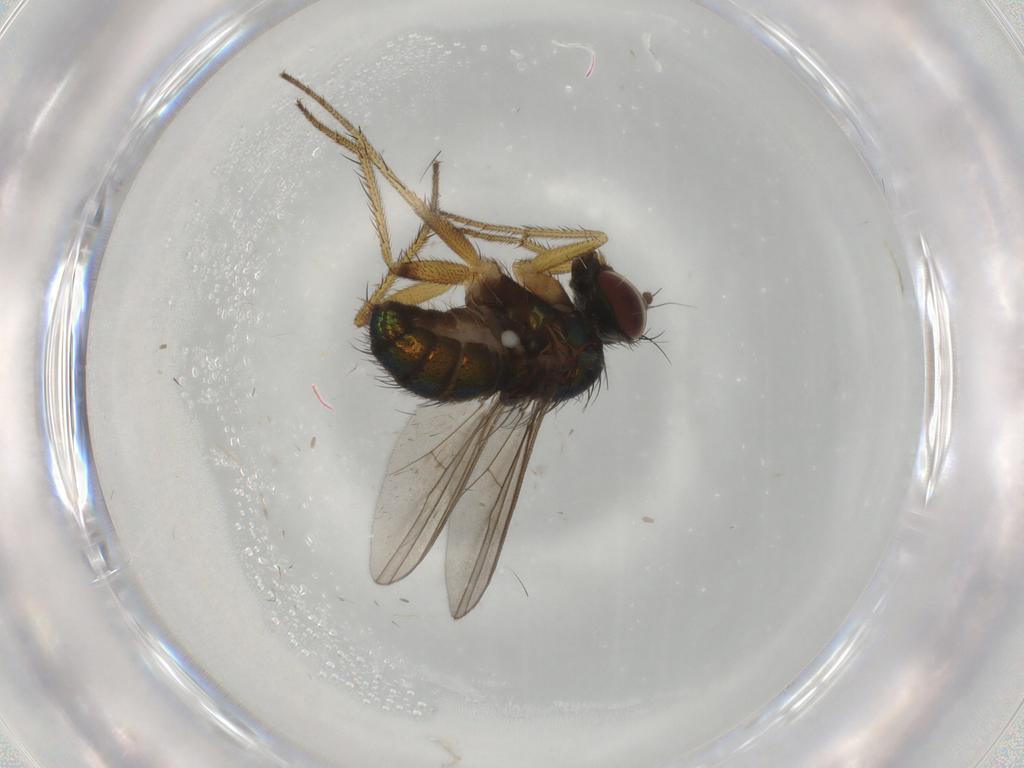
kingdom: Animalia
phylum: Arthropoda
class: Insecta
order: Diptera
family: Dolichopodidae
